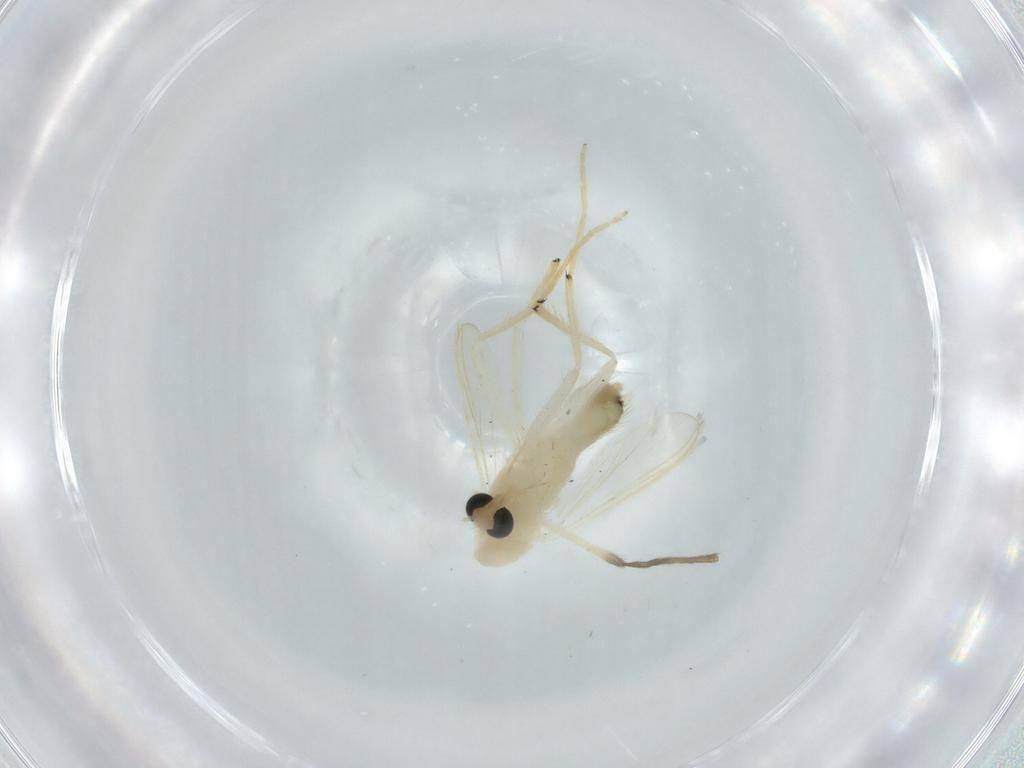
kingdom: Animalia
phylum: Arthropoda
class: Insecta
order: Diptera
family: Chironomidae
